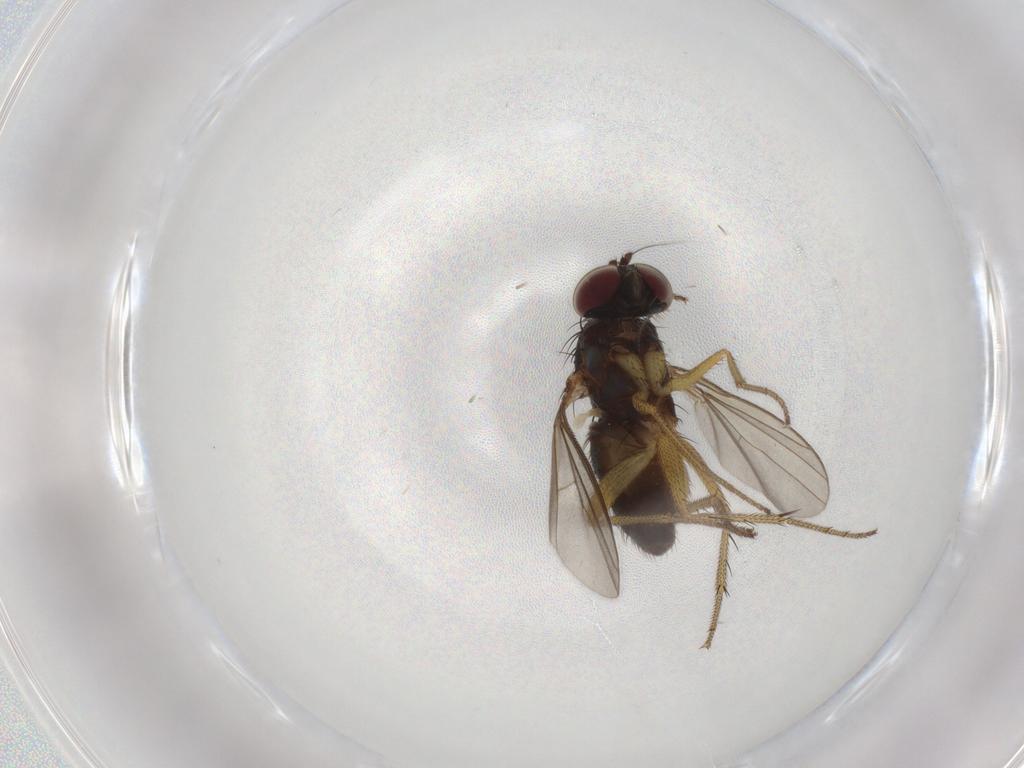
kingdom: Animalia
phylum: Arthropoda
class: Insecta
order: Diptera
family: Dolichopodidae
